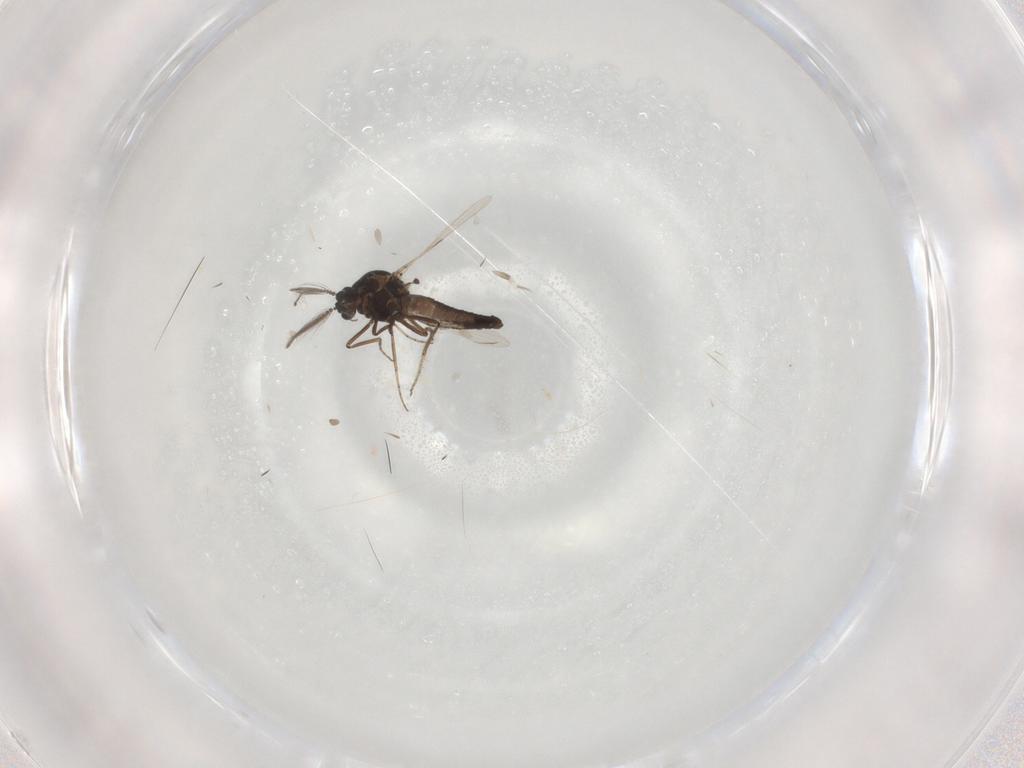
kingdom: Animalia
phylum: Arthropoda
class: Insecta
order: Diptera
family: Ceratopogonidae
